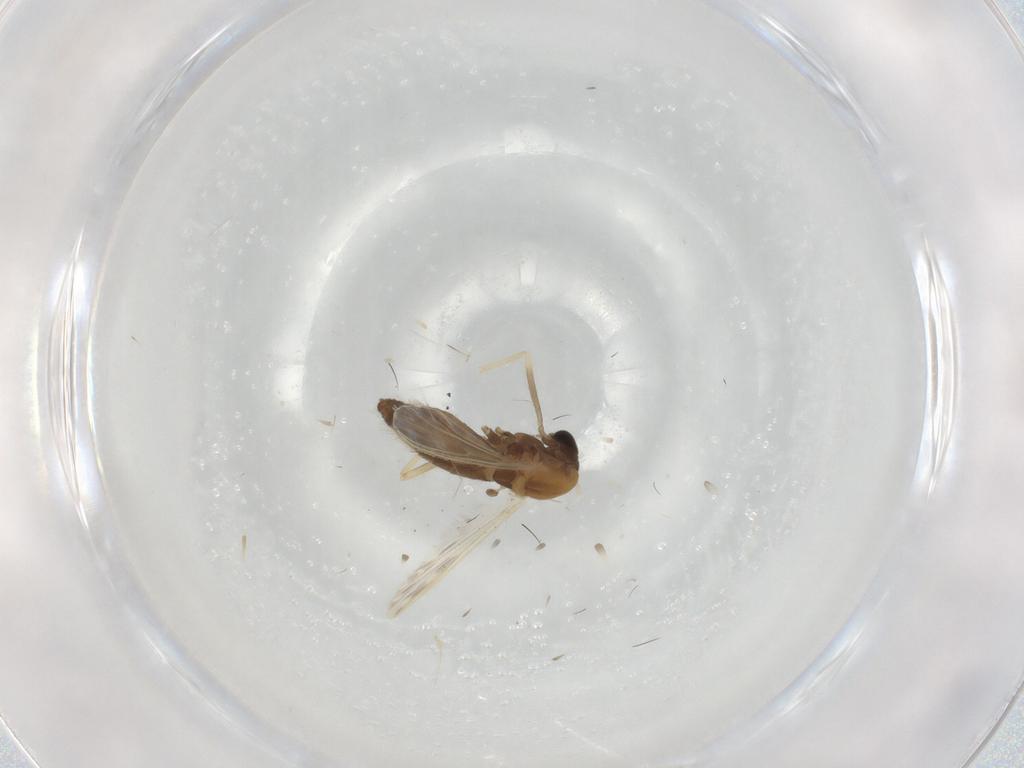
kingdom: Animalia
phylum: Arthropoda
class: Insecta
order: Diptera
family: Chironomidae
